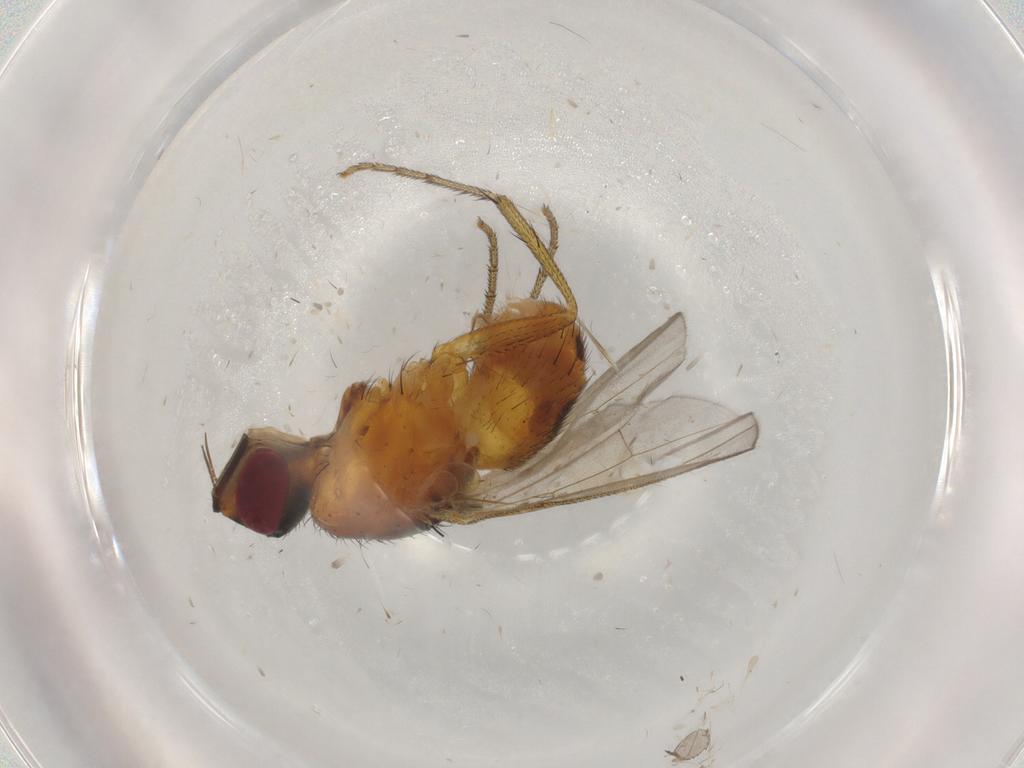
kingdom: Animalia
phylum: Arthropoda
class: Insecta
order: Diptera
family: Muscidae
